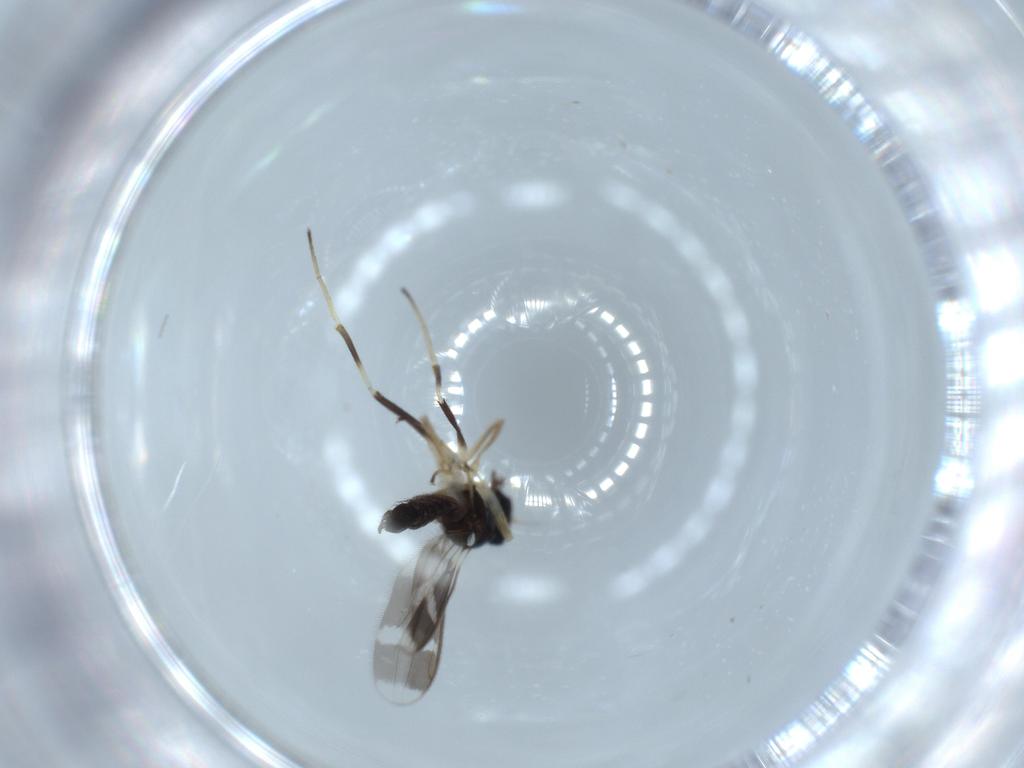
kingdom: Animalia
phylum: Arthropoda
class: Insecta
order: Diptera
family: Hybotidae
